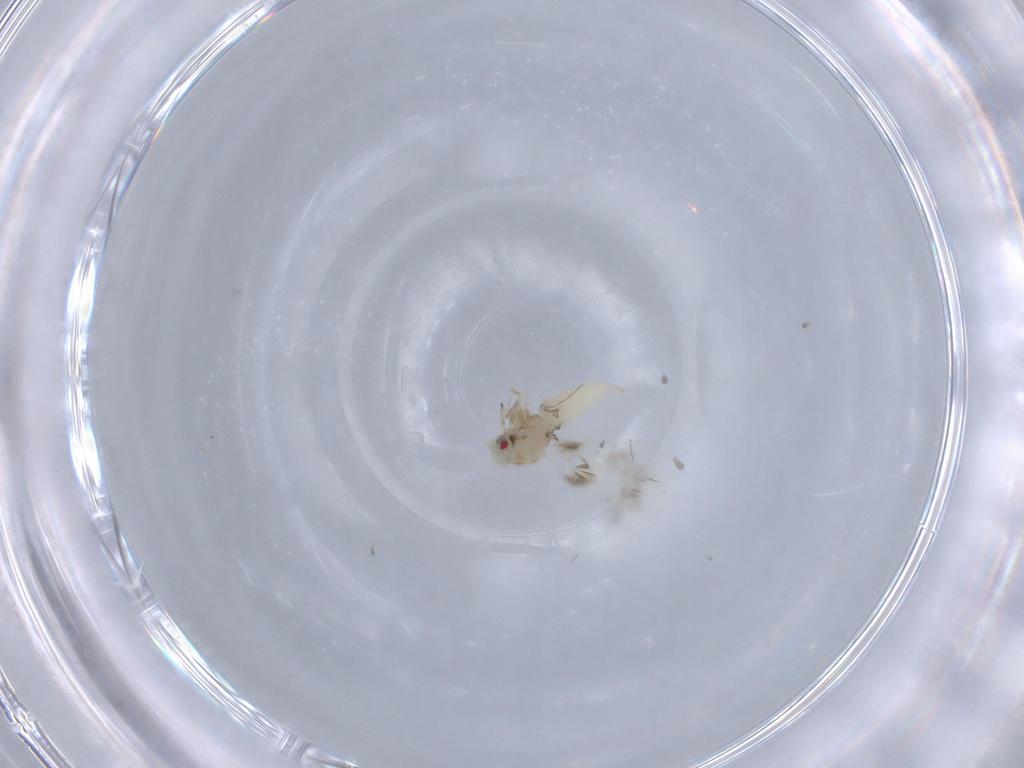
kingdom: Animalia
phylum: Arthropoda
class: Insecta
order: Hemiptera
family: Aleyrodidae
